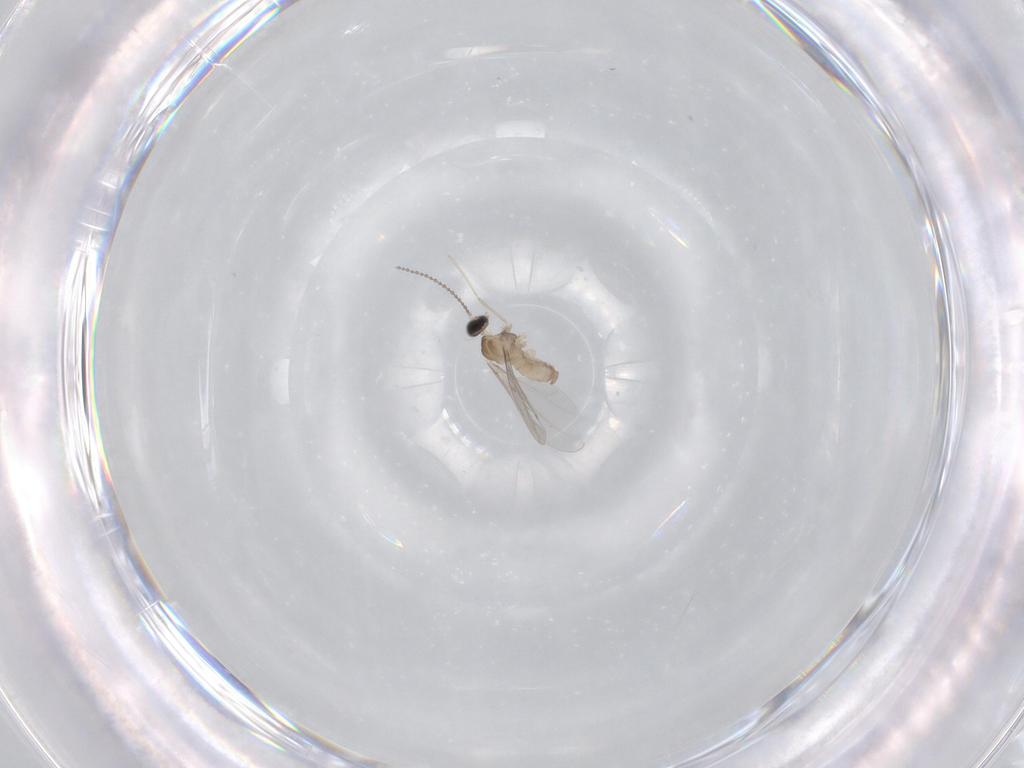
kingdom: Animalia
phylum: Arthropoda
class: Insecta
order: Diptera
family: Cecidomyiidae
